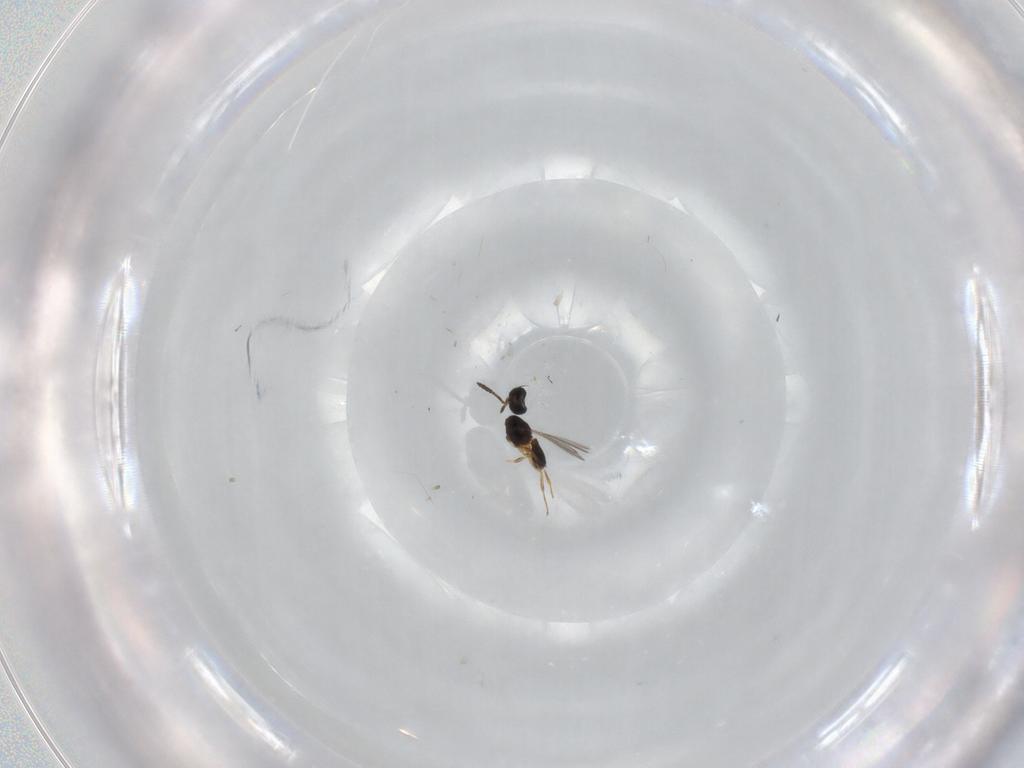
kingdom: Animalia
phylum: Arthropoda
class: Insecta
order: Hymenoptera
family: Scelionidae
